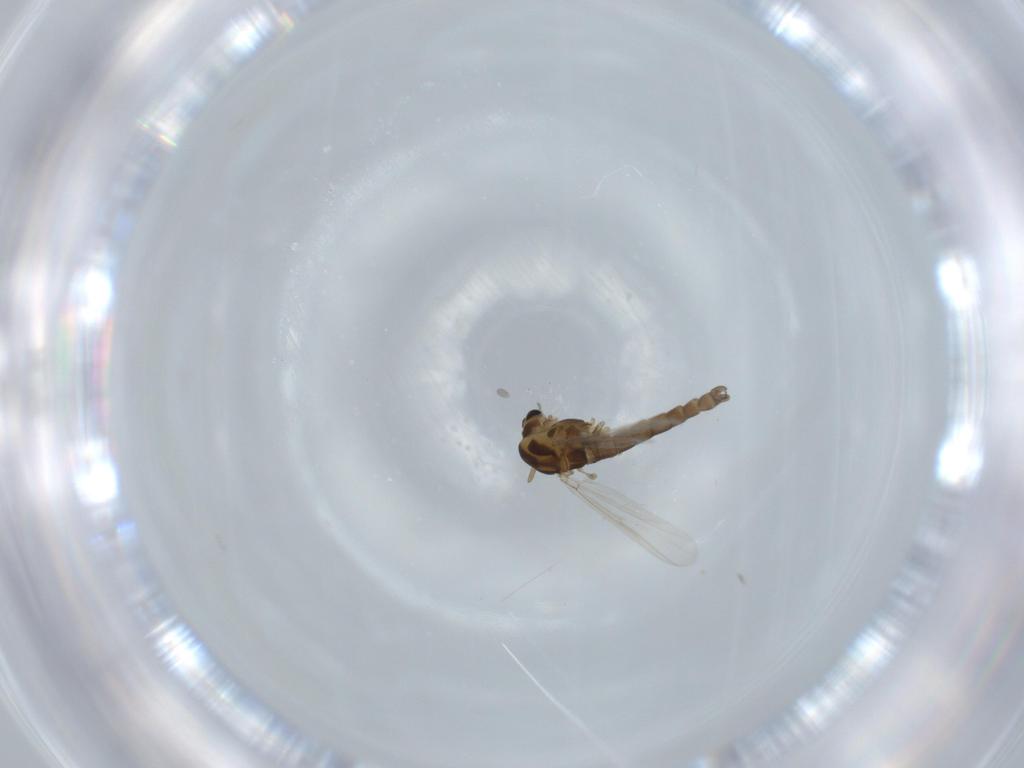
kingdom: Animalia
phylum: Arthropoda
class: Insecta
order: Diptera
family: Chironomidae
